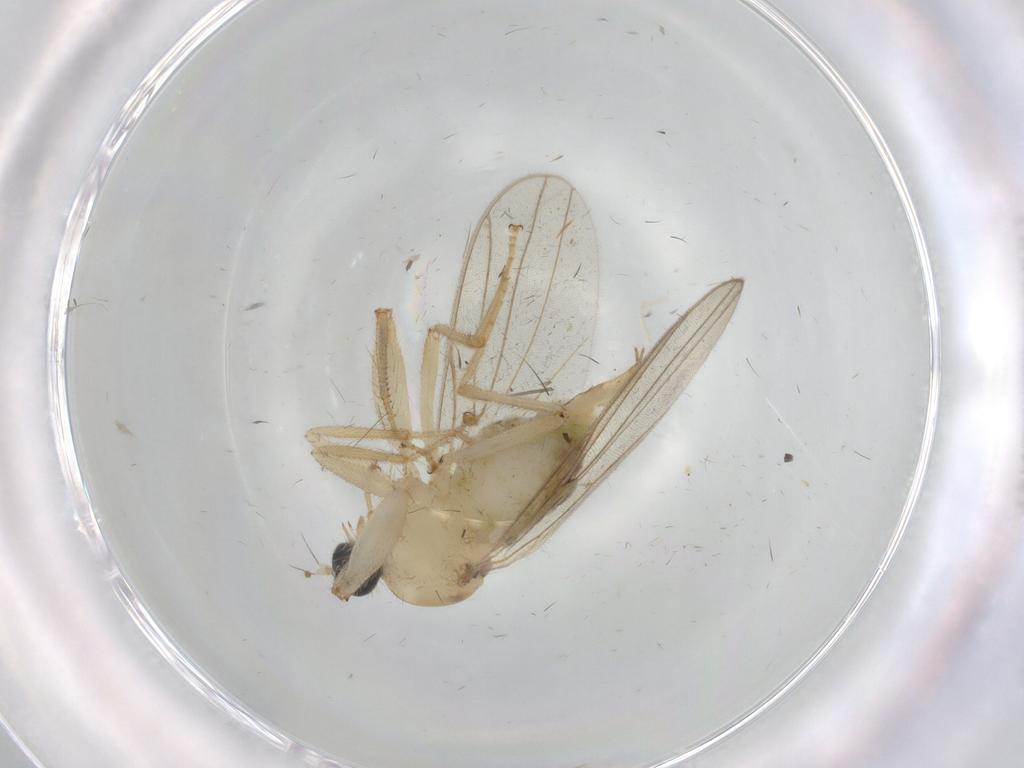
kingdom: Animalia
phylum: Arthropoda
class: Insecta
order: Diptera
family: Hybotidae
